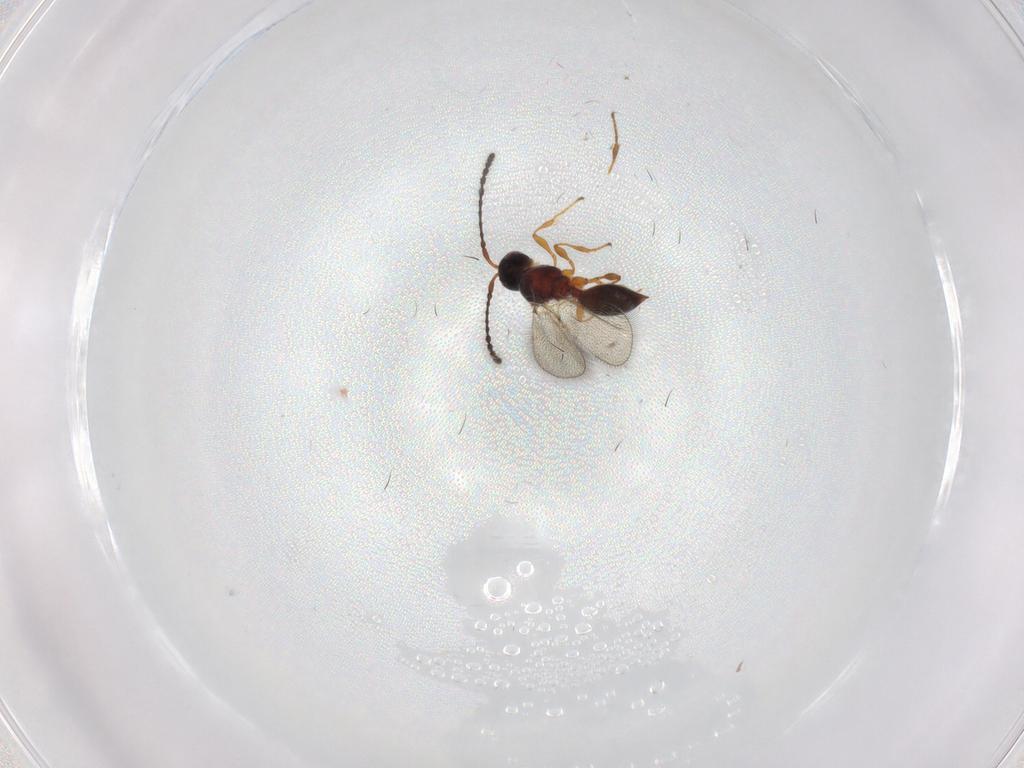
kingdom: Animalia
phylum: Arthropoda
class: Insecta
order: Hymenoptera
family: Diapriidae
